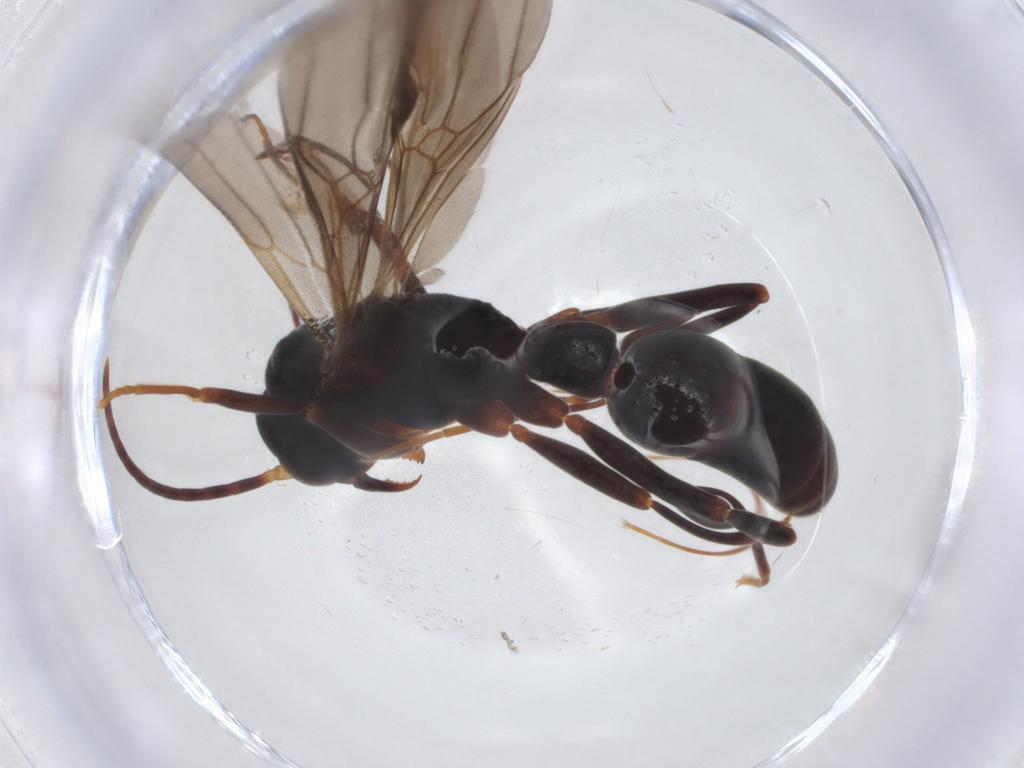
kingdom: Animalia
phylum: Arthropoda
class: Insecta
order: Hymenoptera
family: Formicidae
